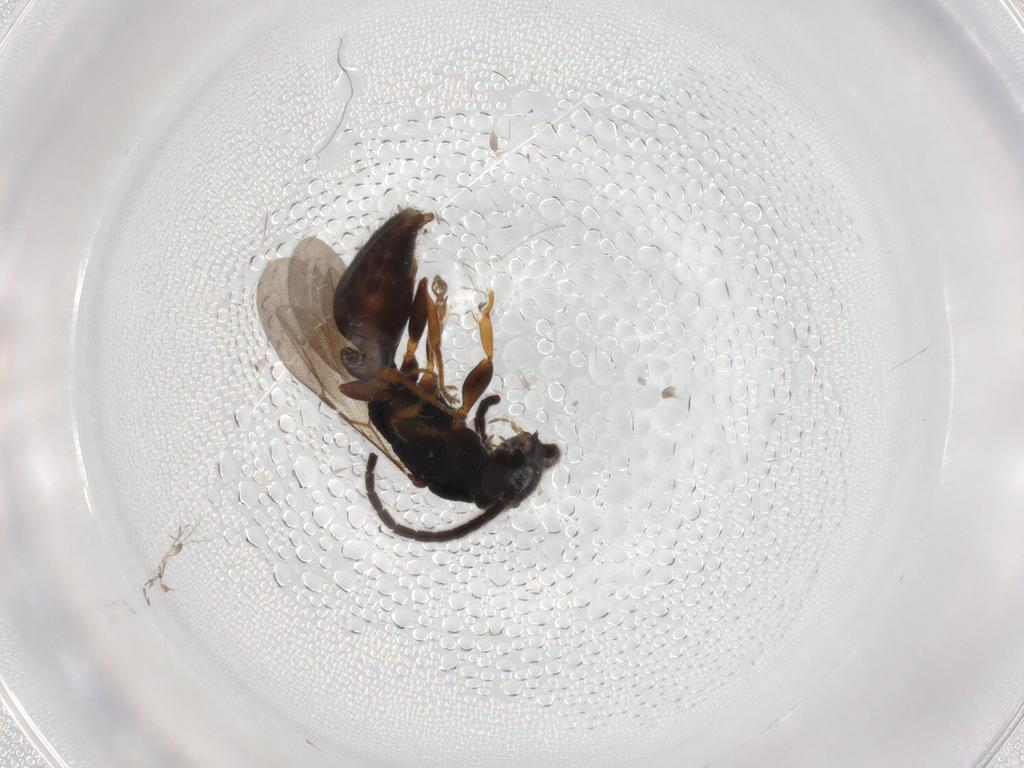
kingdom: Animalia
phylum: Arthropoda
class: Insecta
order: Hymenoptera
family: Bethylidae
